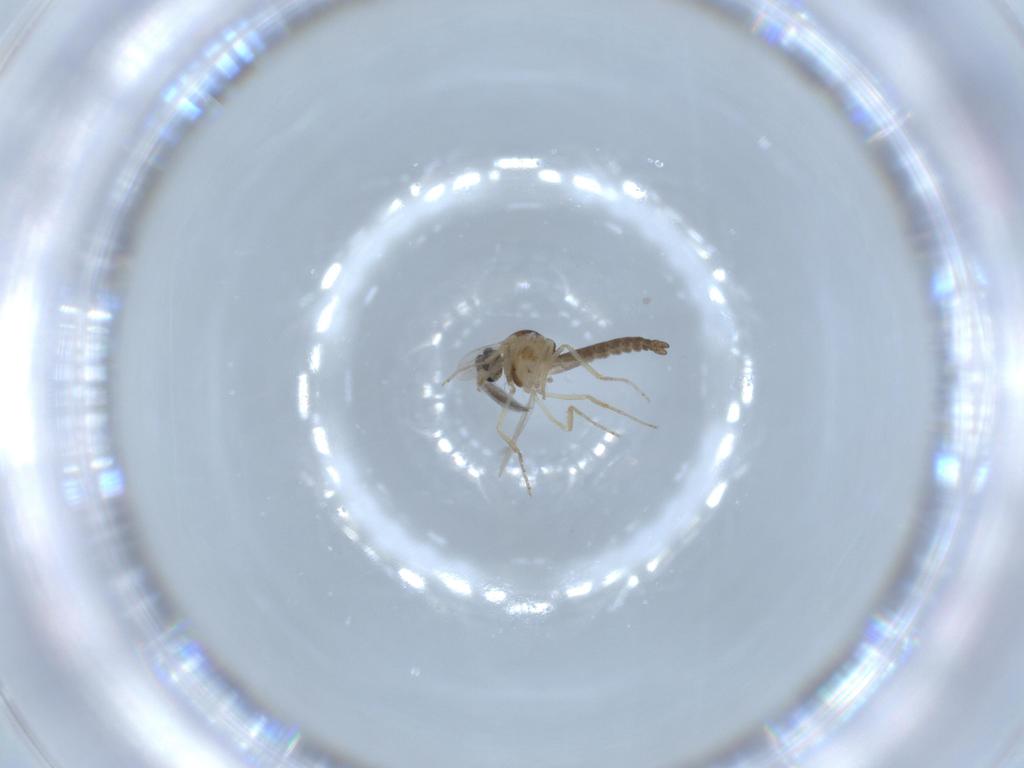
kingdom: Animalia
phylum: Arthropoda
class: Insecta
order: Diptera
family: Ceratopogonidae
